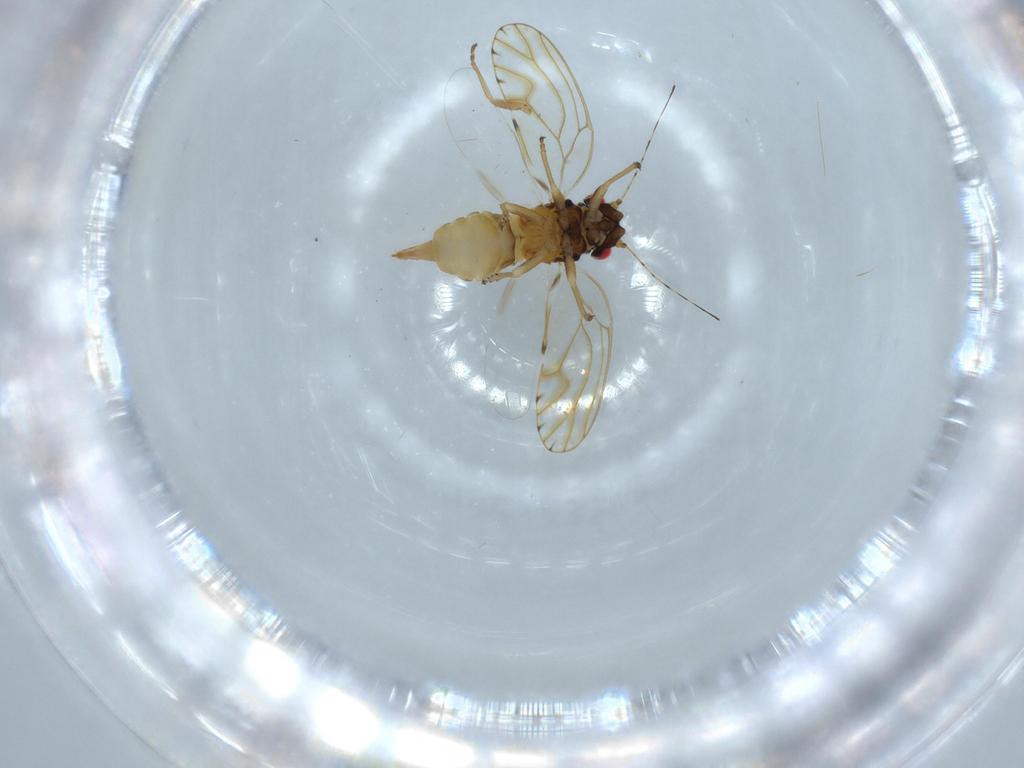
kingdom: Animalia
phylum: Arthropoda
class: Insecta
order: Hemiptera
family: Psylloidea_incertae_sedis
